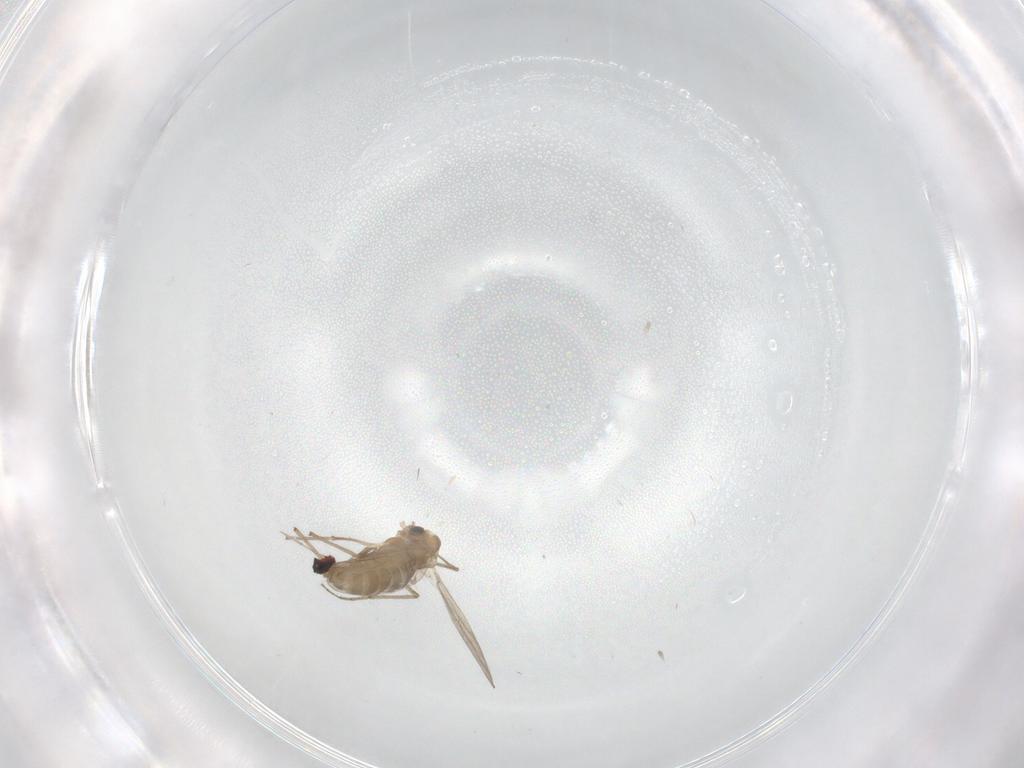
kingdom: Animalia
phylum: Arthropoda
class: Insecta
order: Diptera
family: Chironomidae
